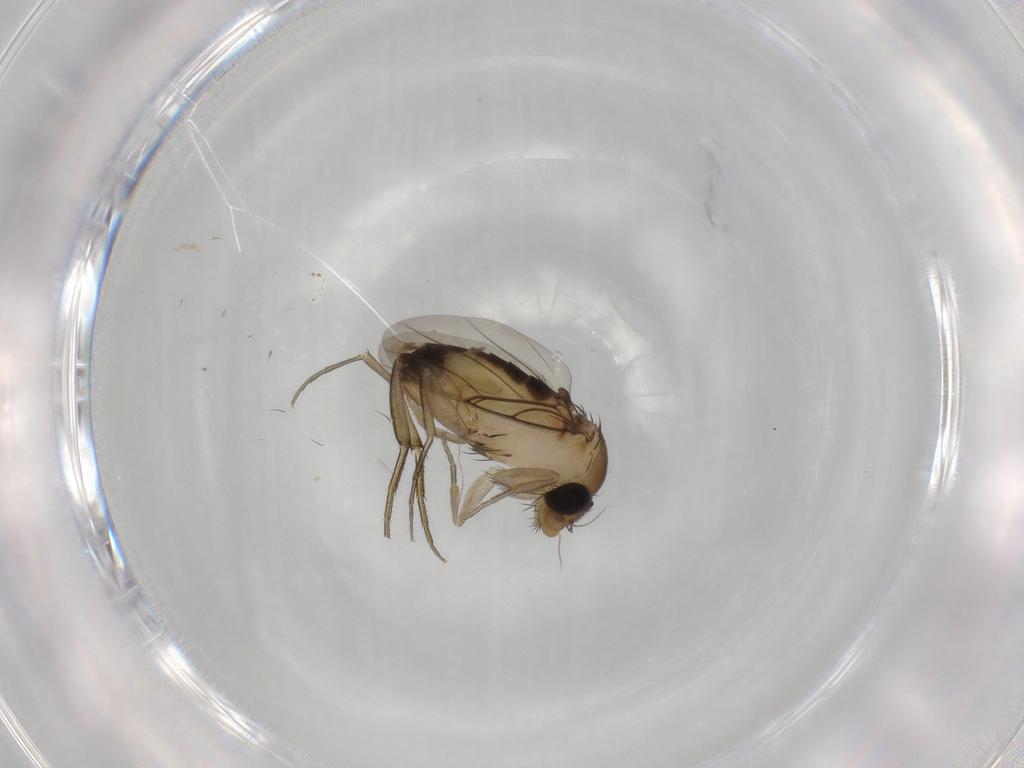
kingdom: Animalia
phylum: Arthropoda
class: Insecta
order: Diptera
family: Phoridae
